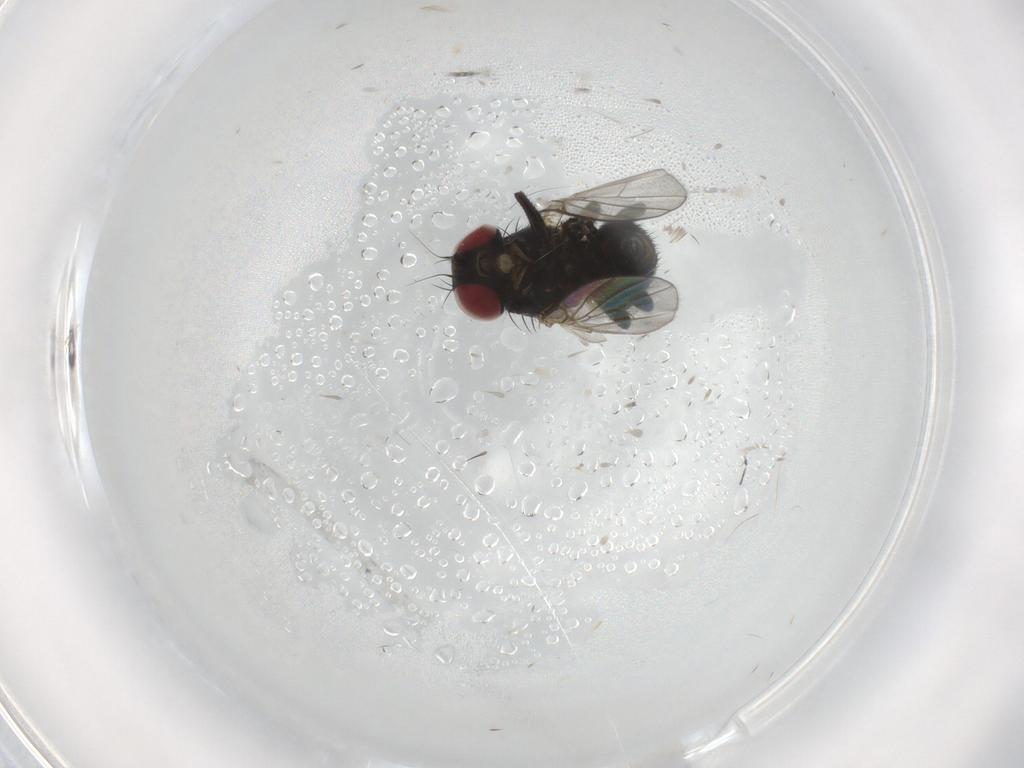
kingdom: Animalia
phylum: Arthropoda
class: Insecta
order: Diptera
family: Agromyzidae
